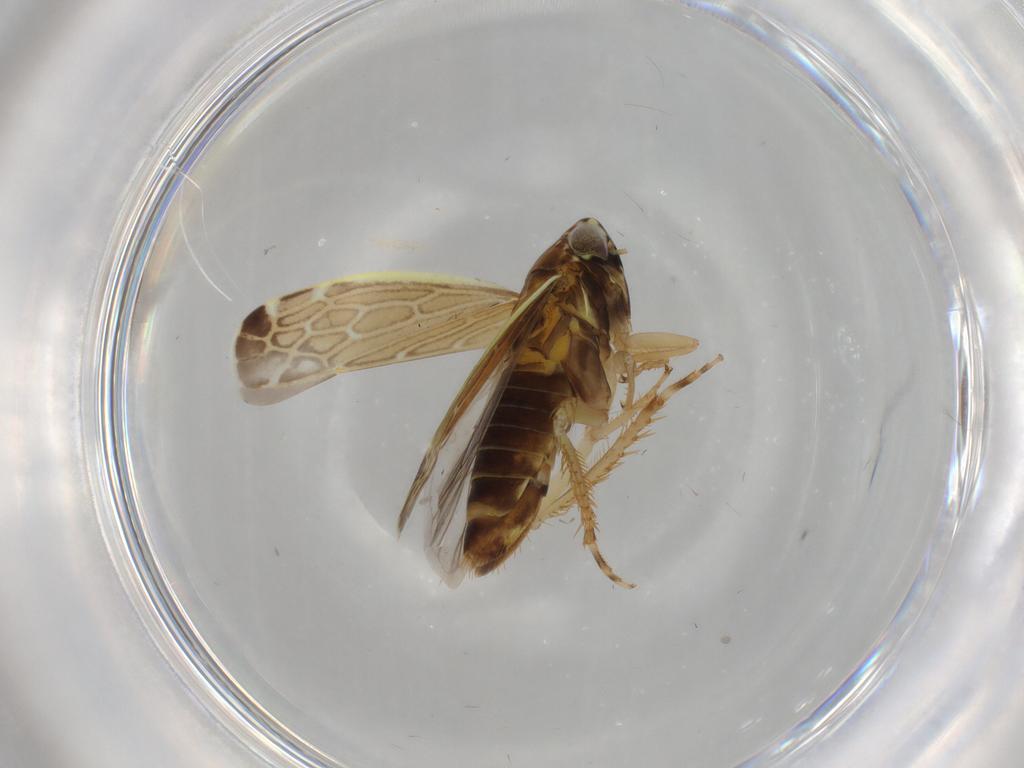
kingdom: Animalia
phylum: Arthropoda
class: Insecta
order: Hemiptera
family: Cicadellidae
